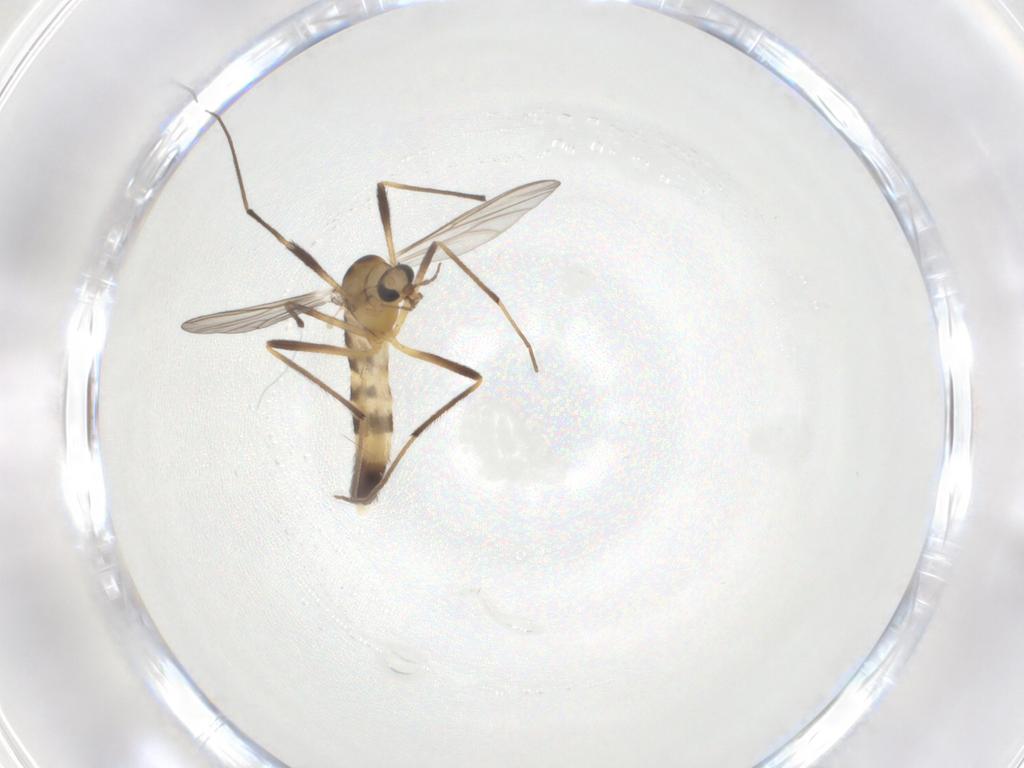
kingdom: Animalia
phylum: Arthropoda
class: Insecta
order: Diptera
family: Chironomidae
